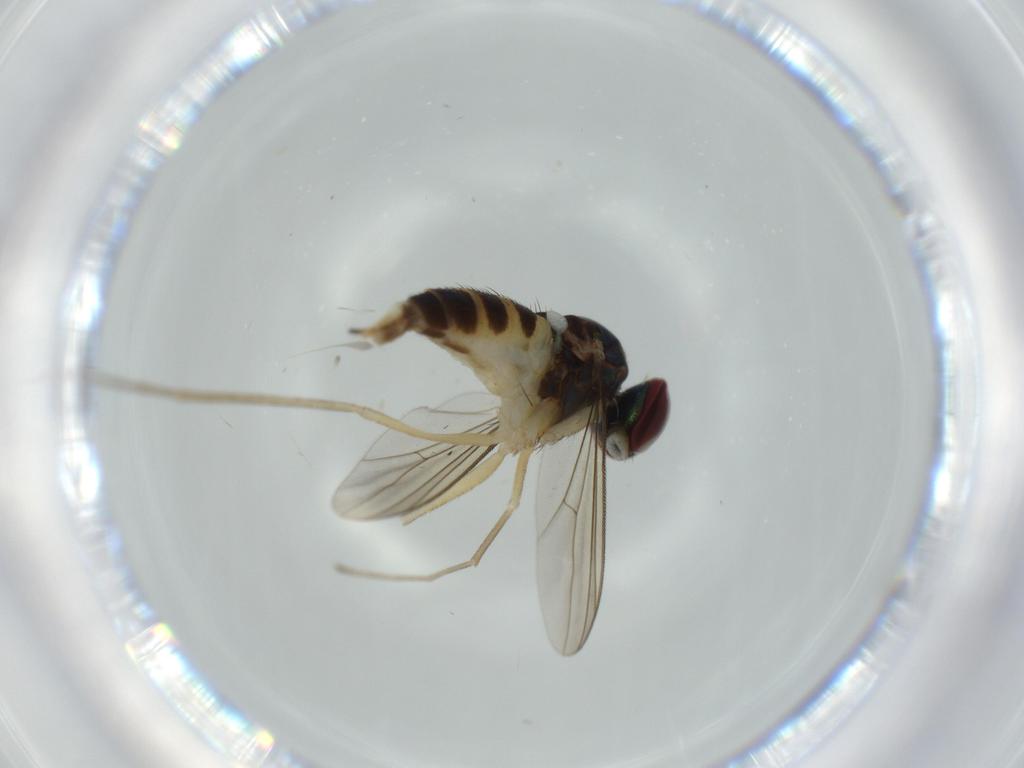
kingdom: Animalia
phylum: Arthropoda
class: Insecta
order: Diptera
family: Dolichopodidae
